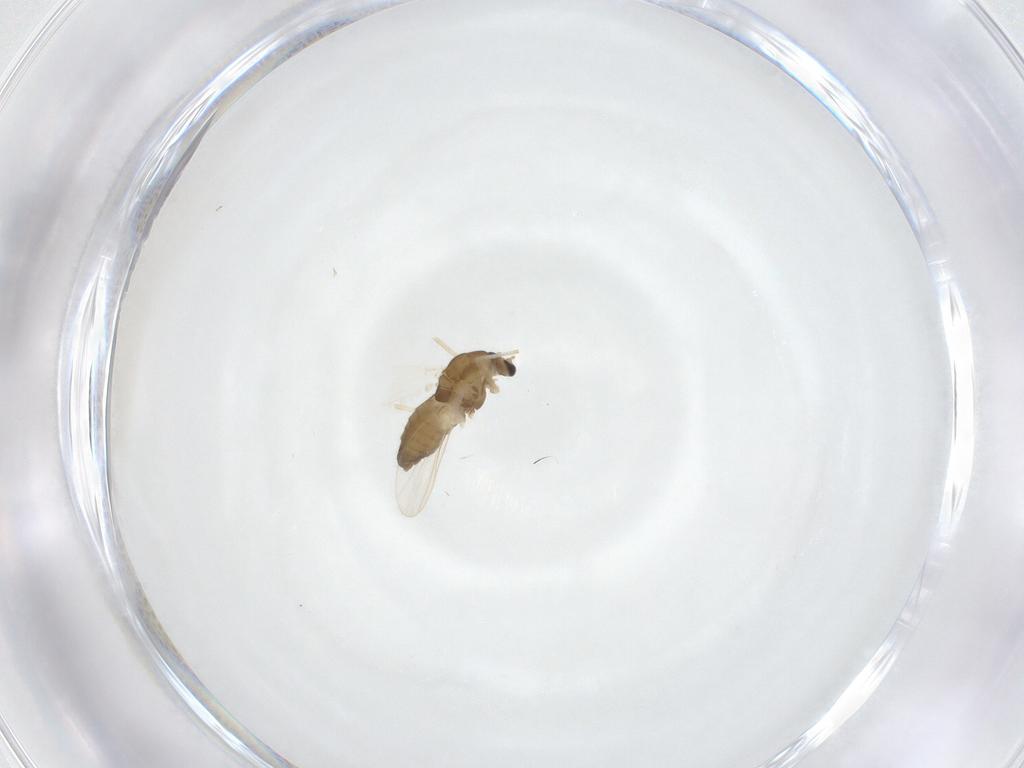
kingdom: Animalia
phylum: Arthropoda
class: Insecta
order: Diptera
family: Chironomidae
